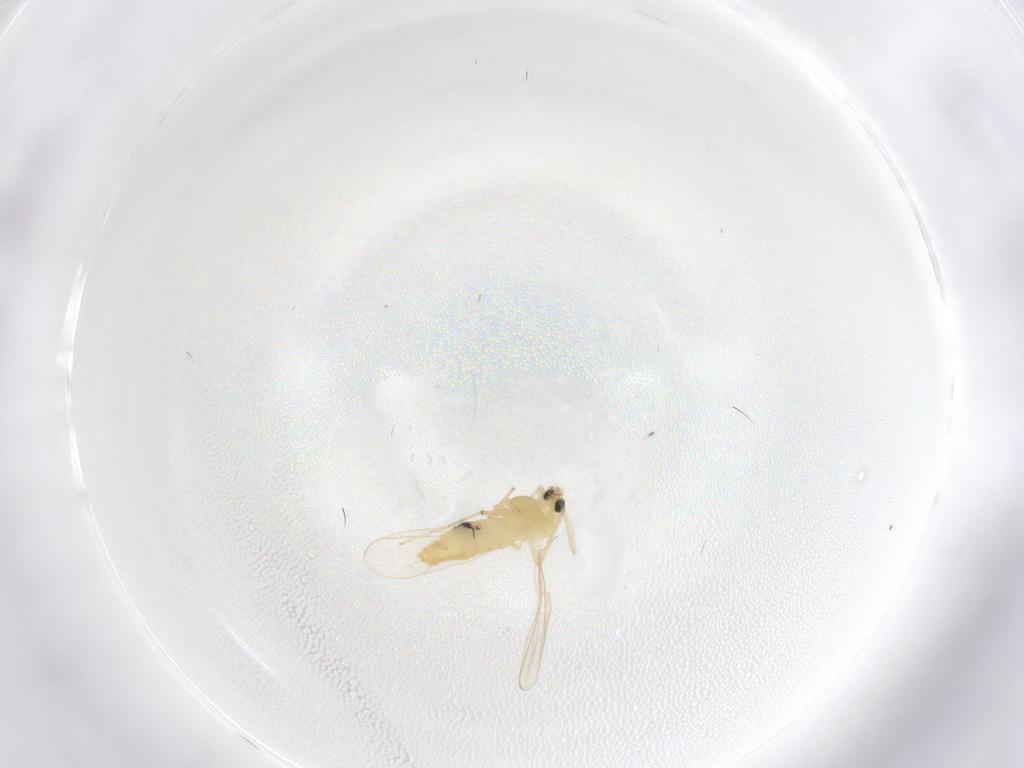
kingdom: Animalia
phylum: Arthropoda
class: Insecta
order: Diptera
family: Chironomidae
